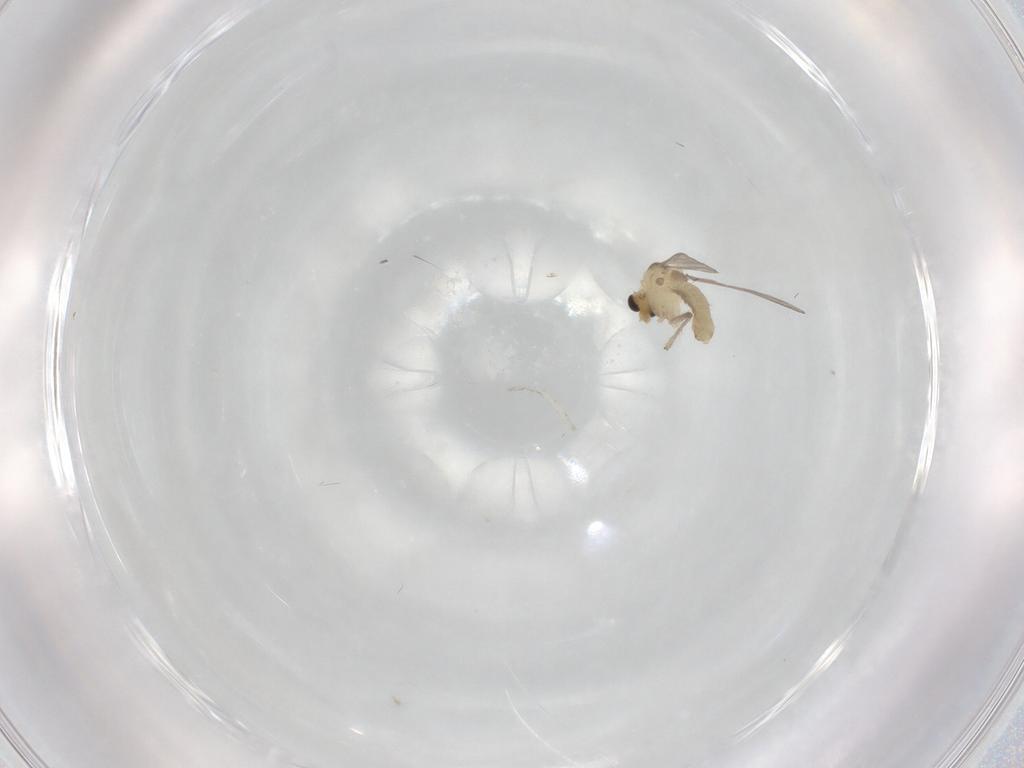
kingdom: Animalia
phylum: Arthropoda
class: Insecta
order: Diptera
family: Chironomidae
